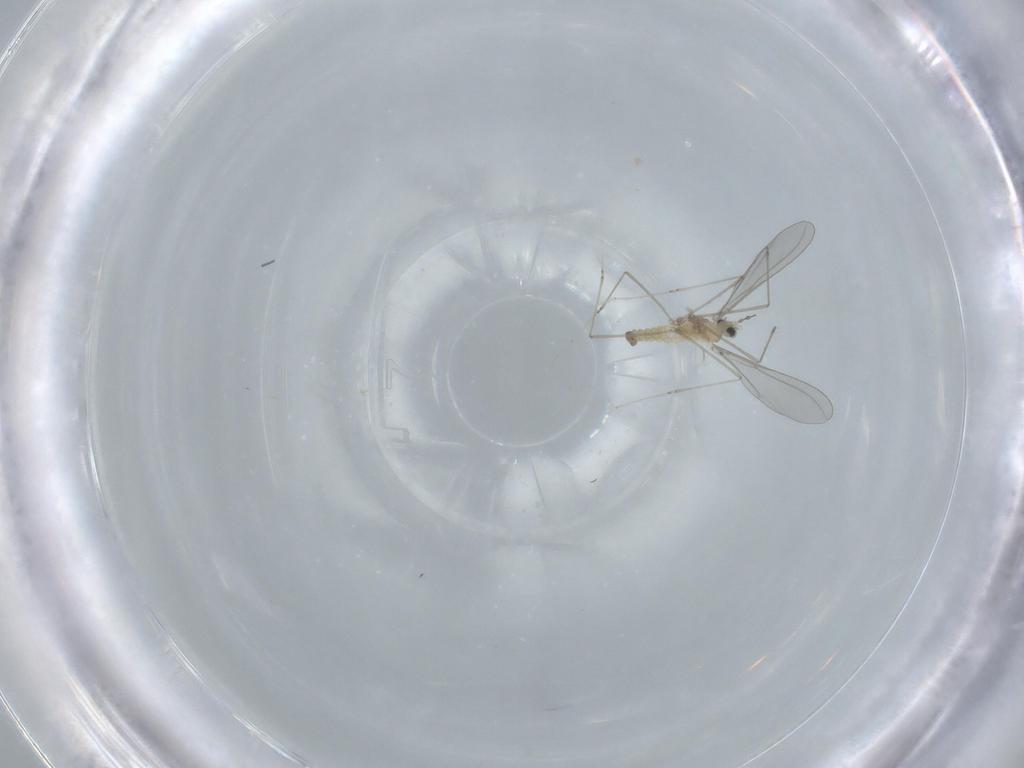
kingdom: Animalia
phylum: Arthropoda
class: Insecta
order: Diptera
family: Cecidomyiidae
